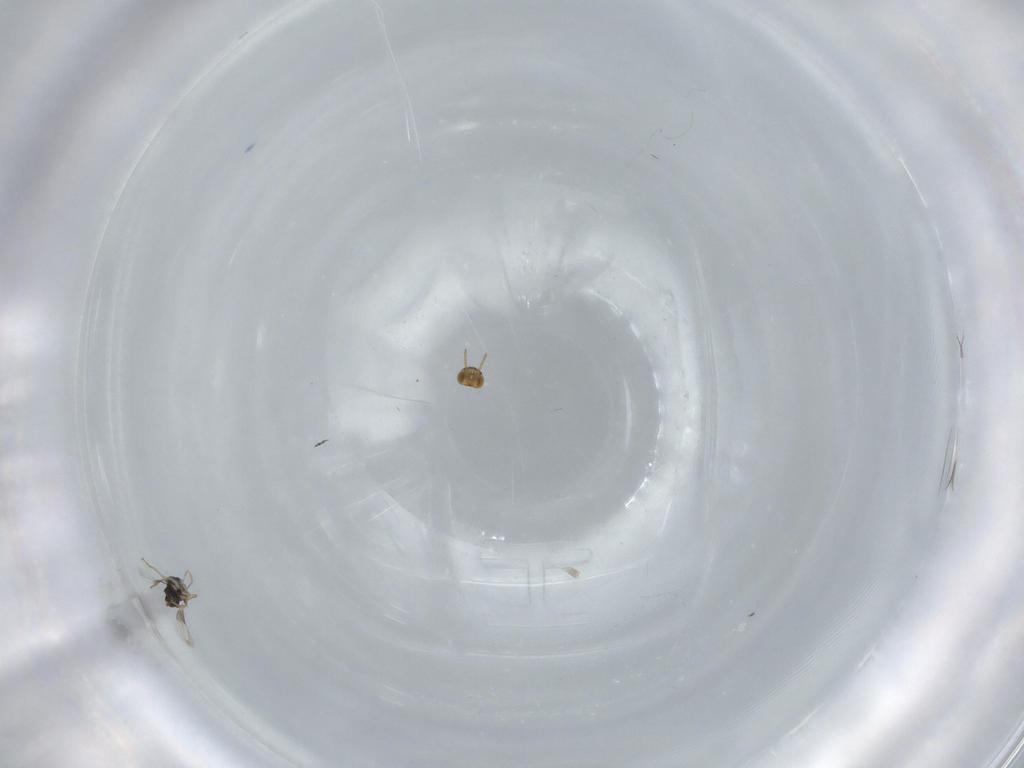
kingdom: Animalia
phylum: Arthropoda
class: Insecta
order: Hymenoptera
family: Aphelinidae
